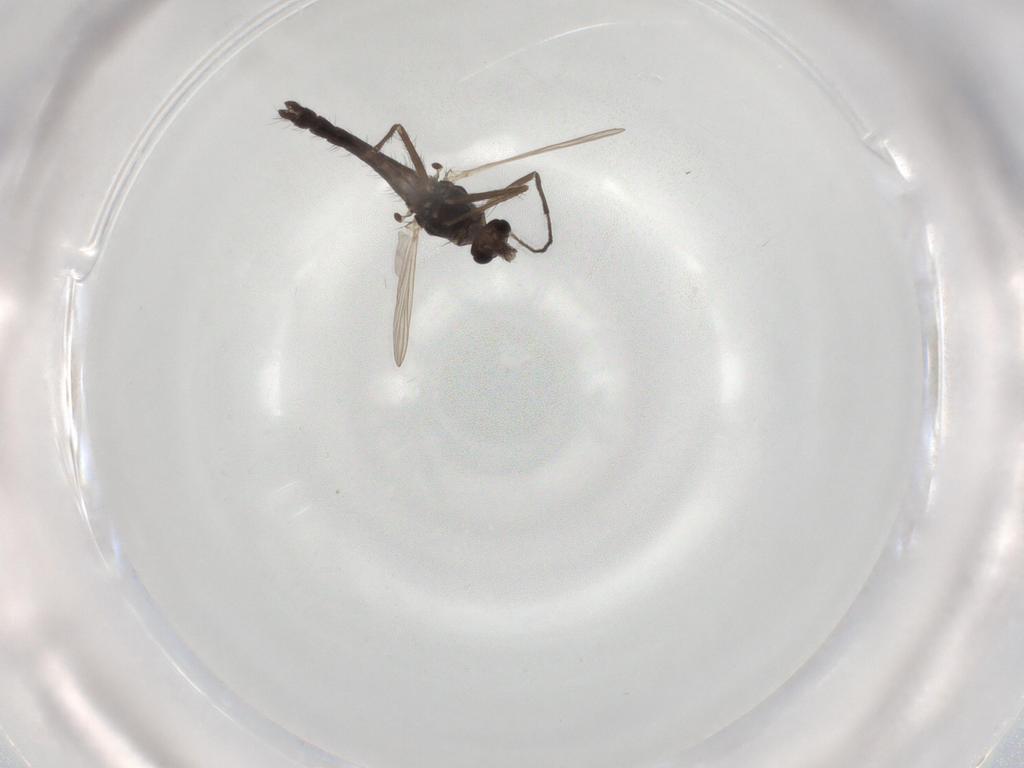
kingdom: Animalia
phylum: Arthropoda
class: Insecta
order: Diptera
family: Chironomidae
